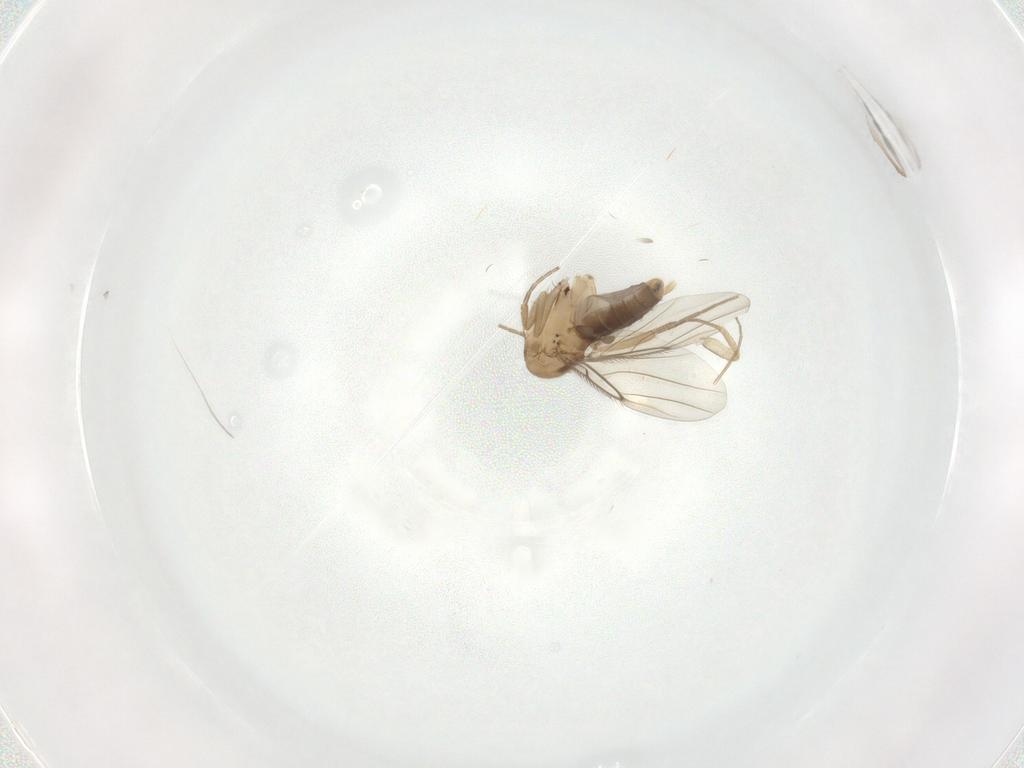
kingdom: Animalia
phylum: Arthropoda
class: Insecta
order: Diptera
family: Phoridae
